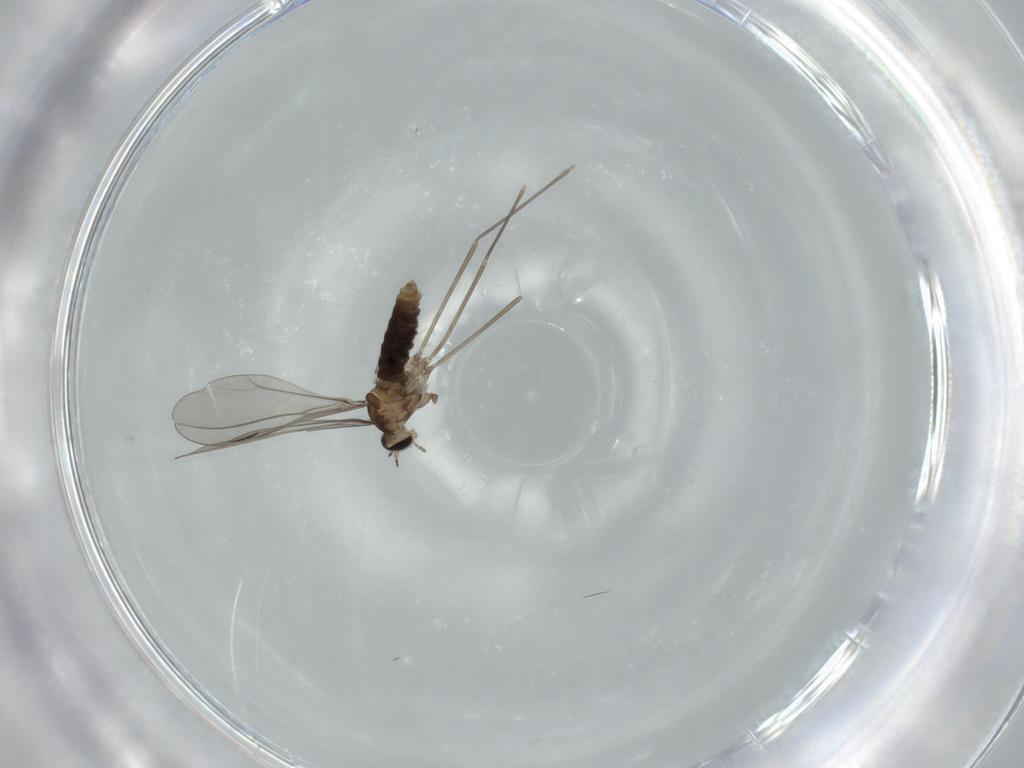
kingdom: Animalia
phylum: Arthropoda
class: Insecta
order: Diptera
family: Cecidomyiidae
